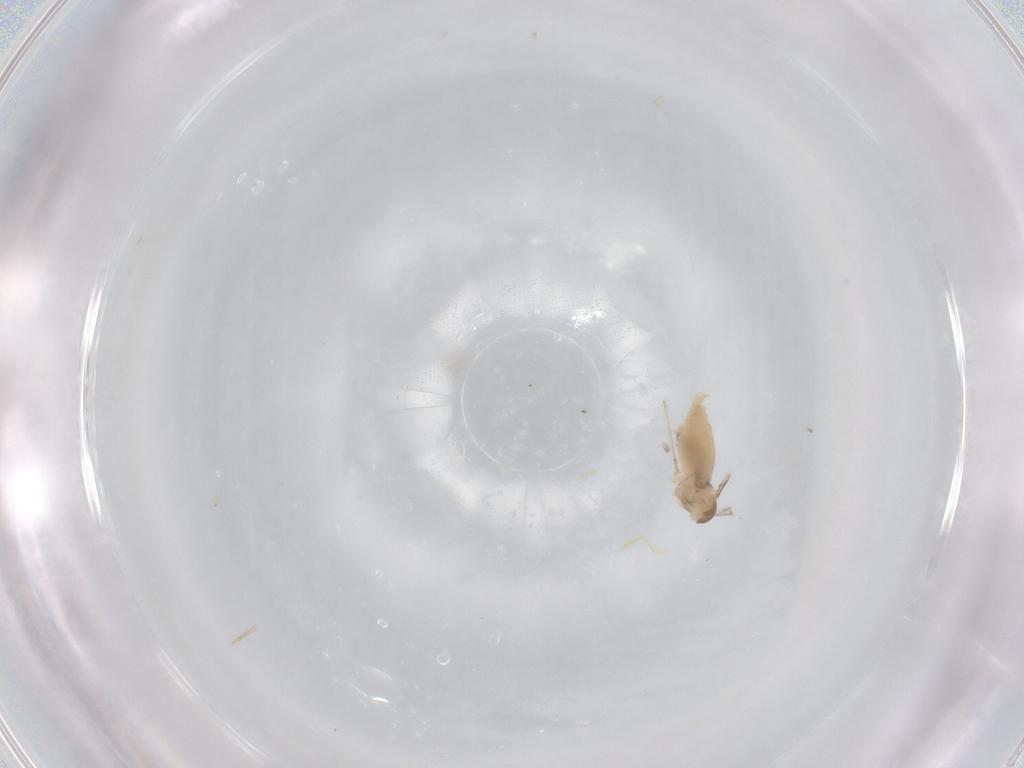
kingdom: Animalia
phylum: Arthropoda
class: Insecta
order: Diptera
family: Cecidomyiidae
